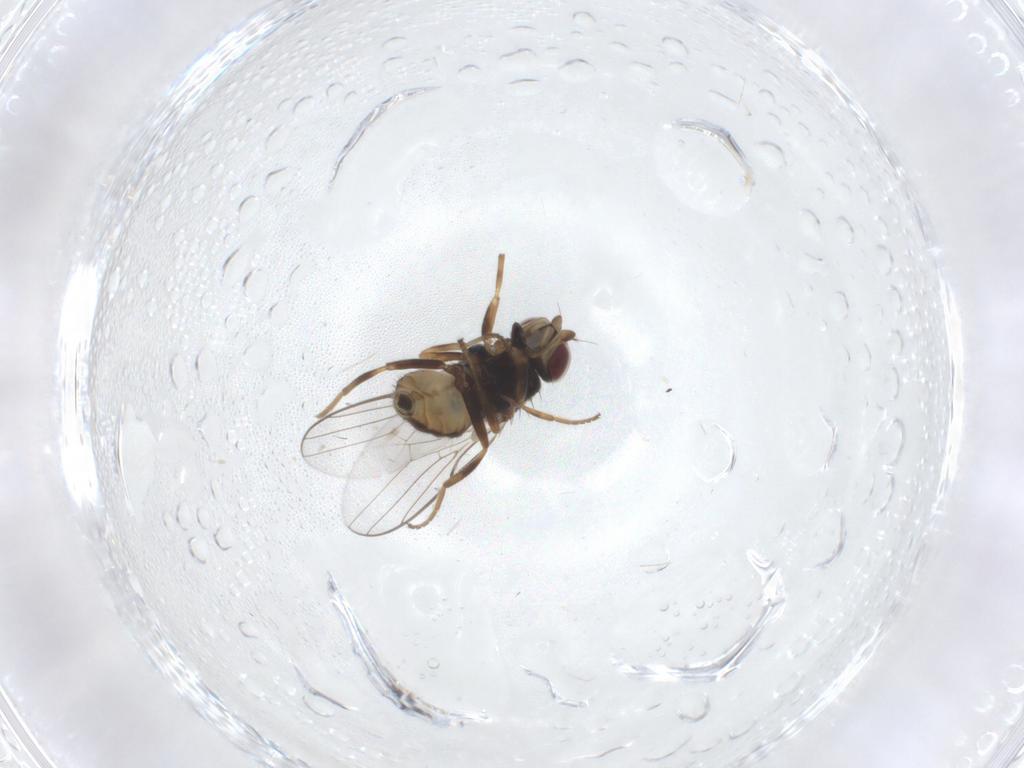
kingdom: Animalia
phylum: Arthropoda
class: Insecta
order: Diptera
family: Chloropidae
